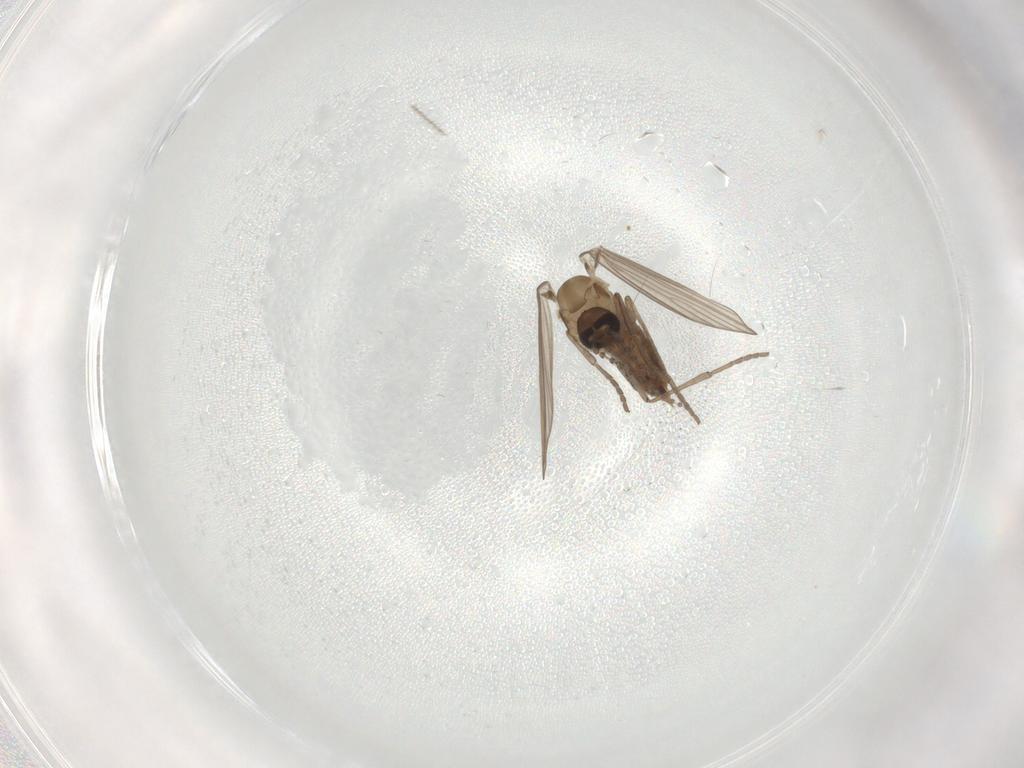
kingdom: Animalia
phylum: Arthropoda
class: Insecta
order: Diptera
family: Psychodidae
